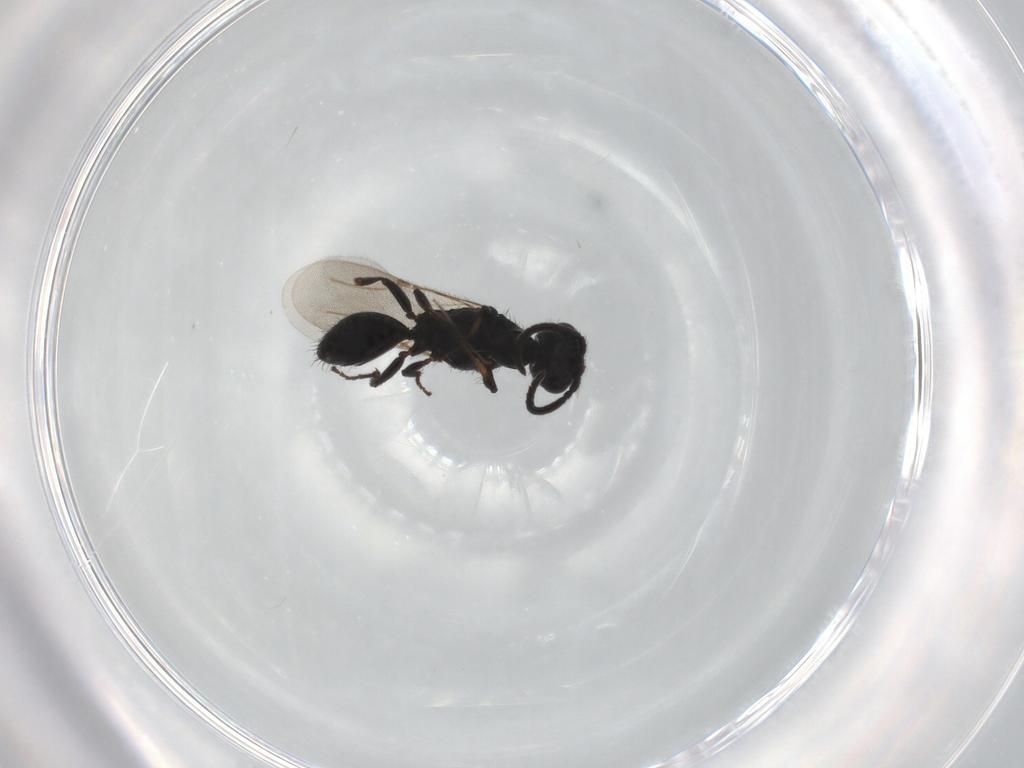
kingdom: Animalia
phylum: Arthropoda
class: Insecta
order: Hymenoptera
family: Bethylidae
